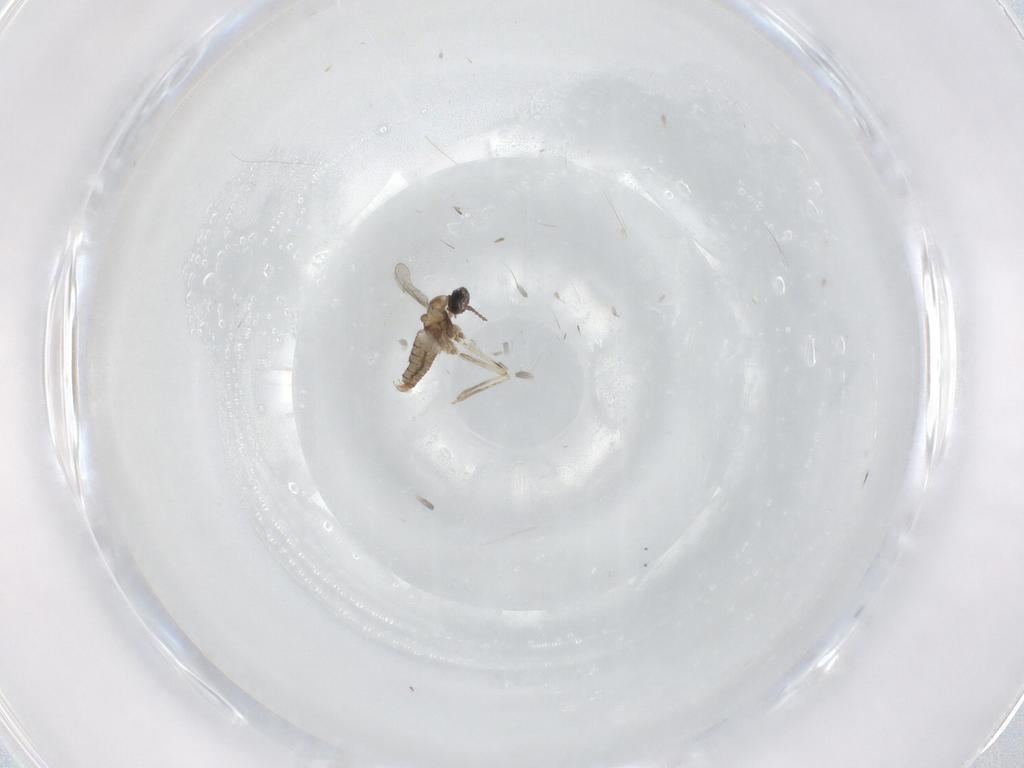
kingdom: Animalia
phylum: Arthropoda
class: Insecta
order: Diptera
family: Cecidomyiidae
